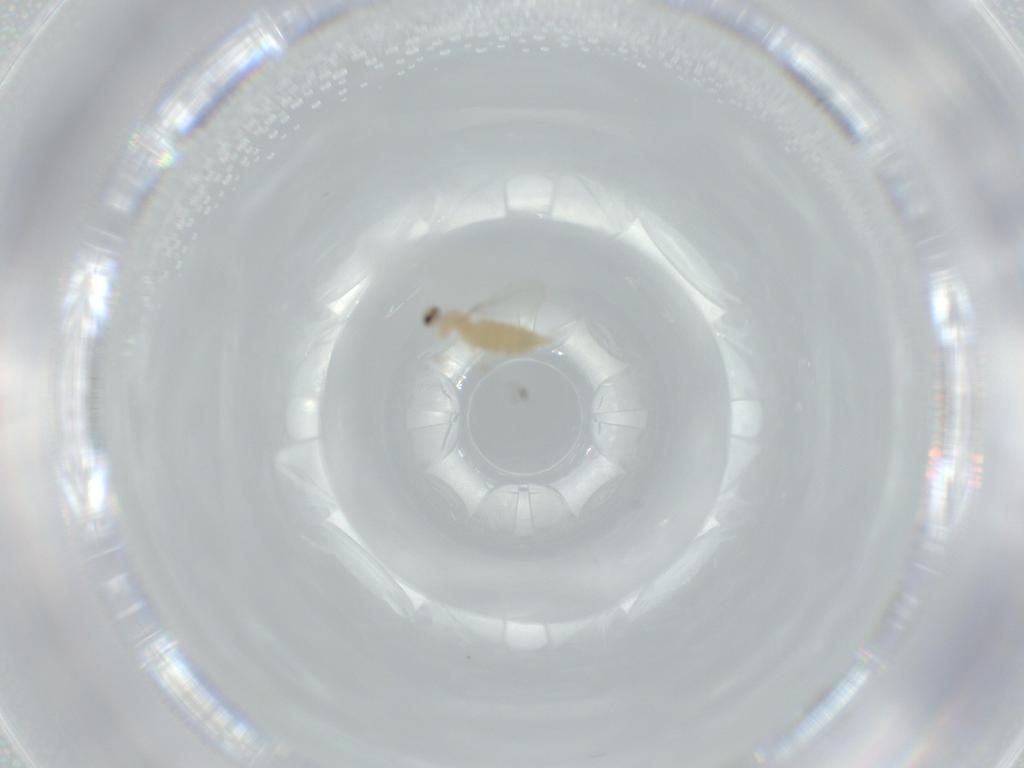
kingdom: Animalia
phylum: Arthropoda
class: Insecta
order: Diptera
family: Cecidomyiidae
